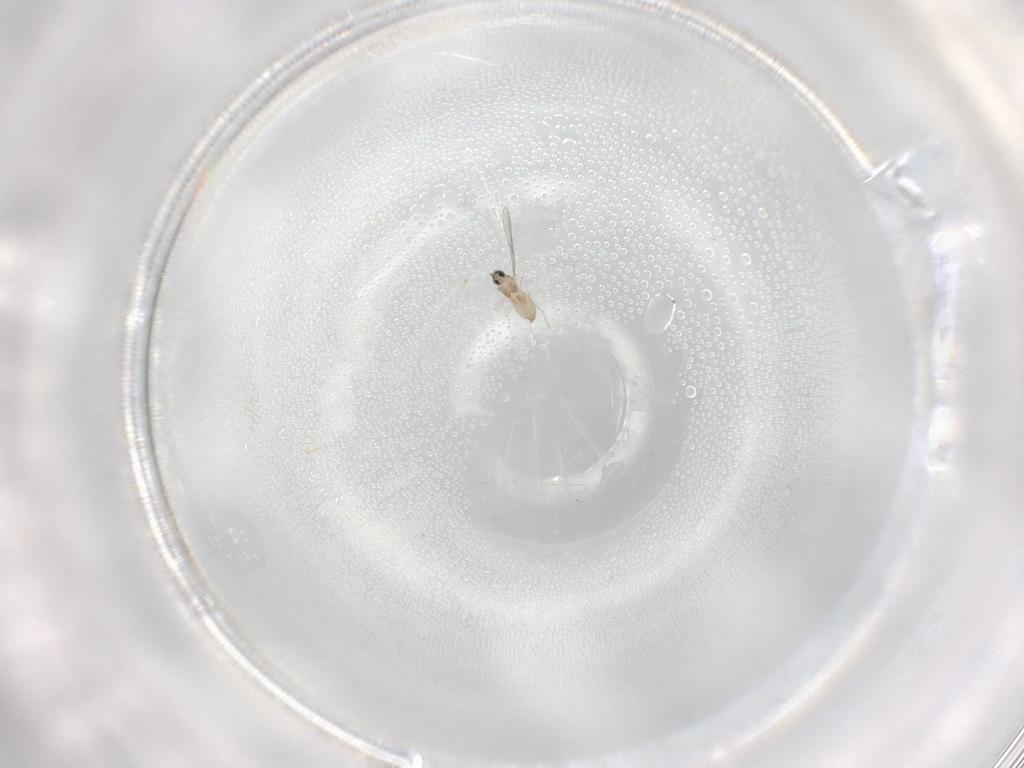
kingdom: Animalia
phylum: Arthropoda
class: Insecta
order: Diptera
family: Cecidomyiidae
